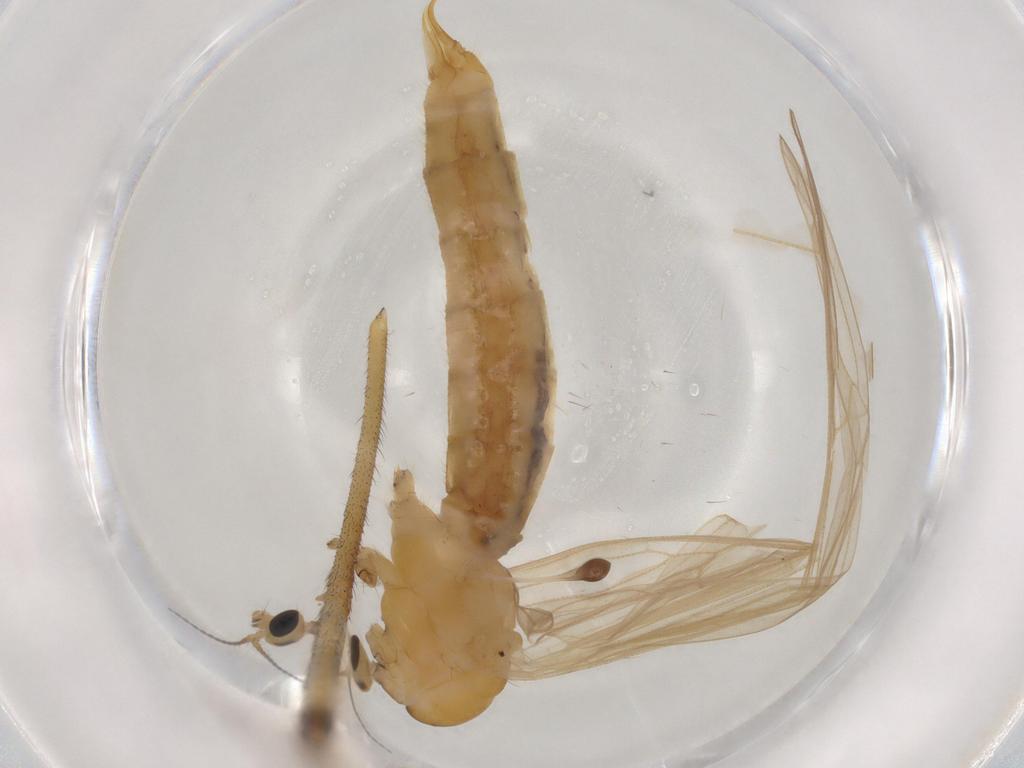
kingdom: Animalia
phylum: Arthropoda
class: Insecta
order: Diptera
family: Limoniidae
